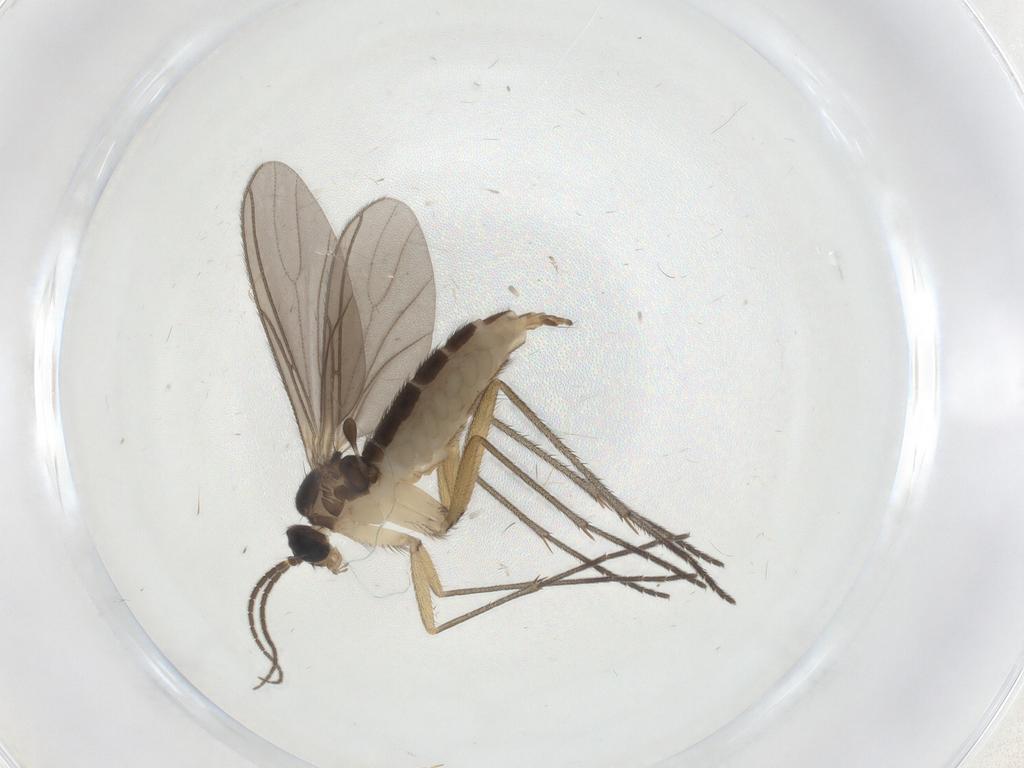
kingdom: Animalia
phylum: Arthropoda
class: Insecta
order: Diptera
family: Sciaridae
